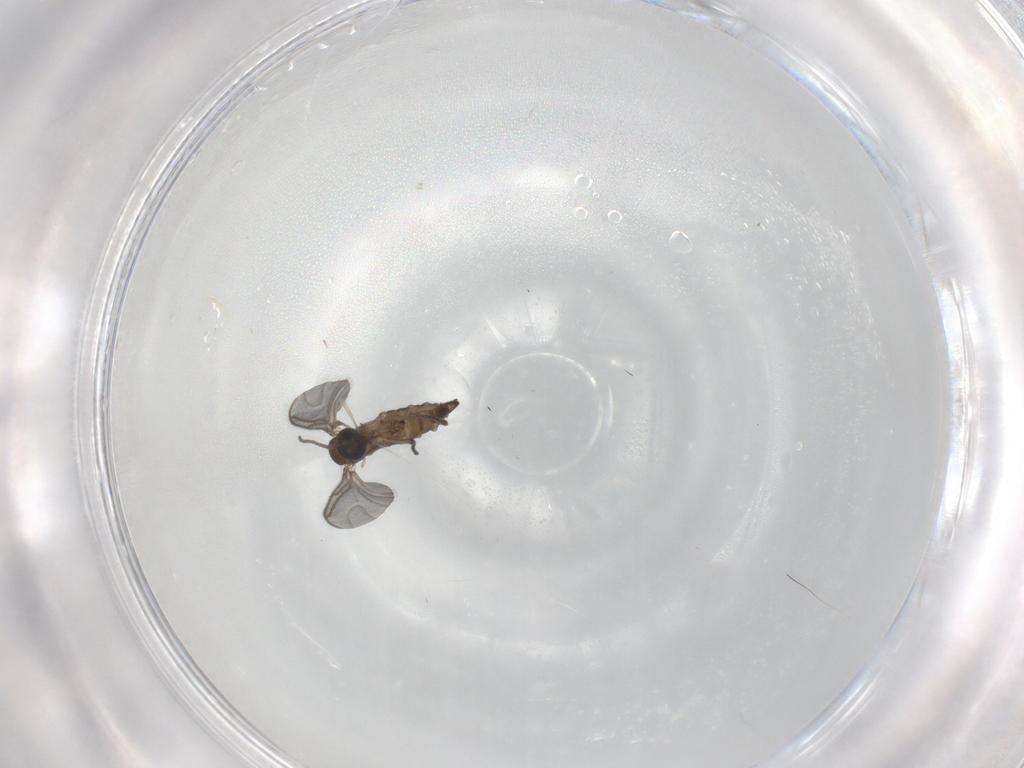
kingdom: Animalia
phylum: Arthropoda
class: Insecta
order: Diptera
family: Sciaridae
